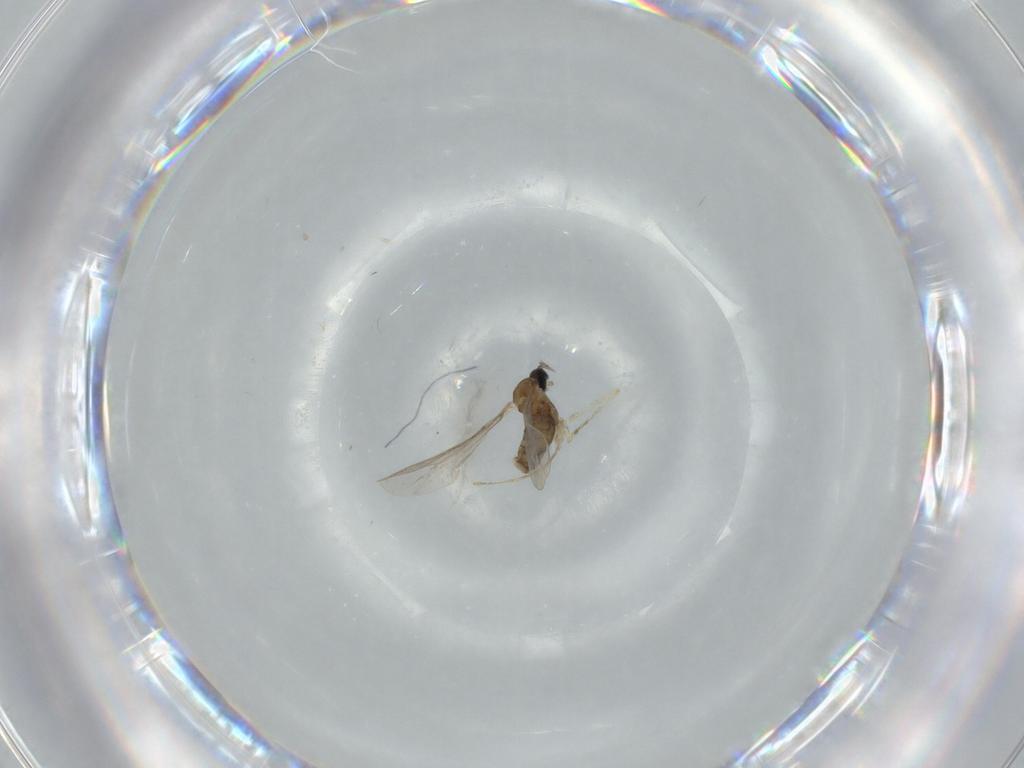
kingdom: Animalia
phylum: Arthropoda
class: Insecta
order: Diptera
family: Cecidomyiidae
